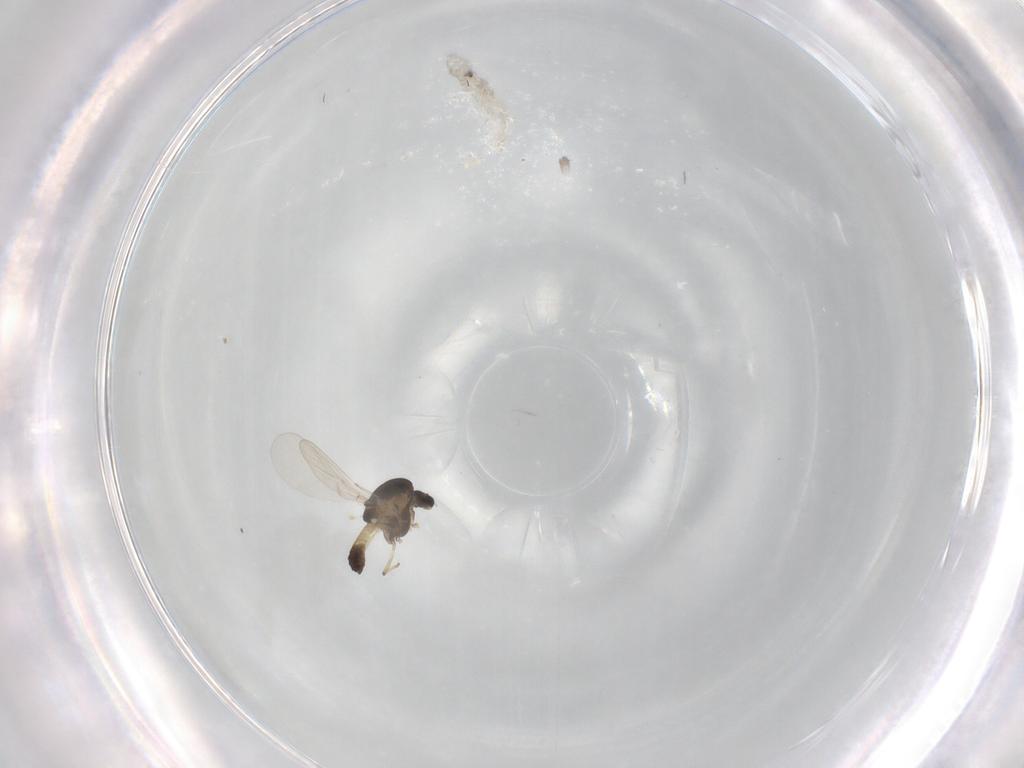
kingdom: Animalia
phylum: Arthropoda
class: Insecta
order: Diptera
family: Chironomidae
